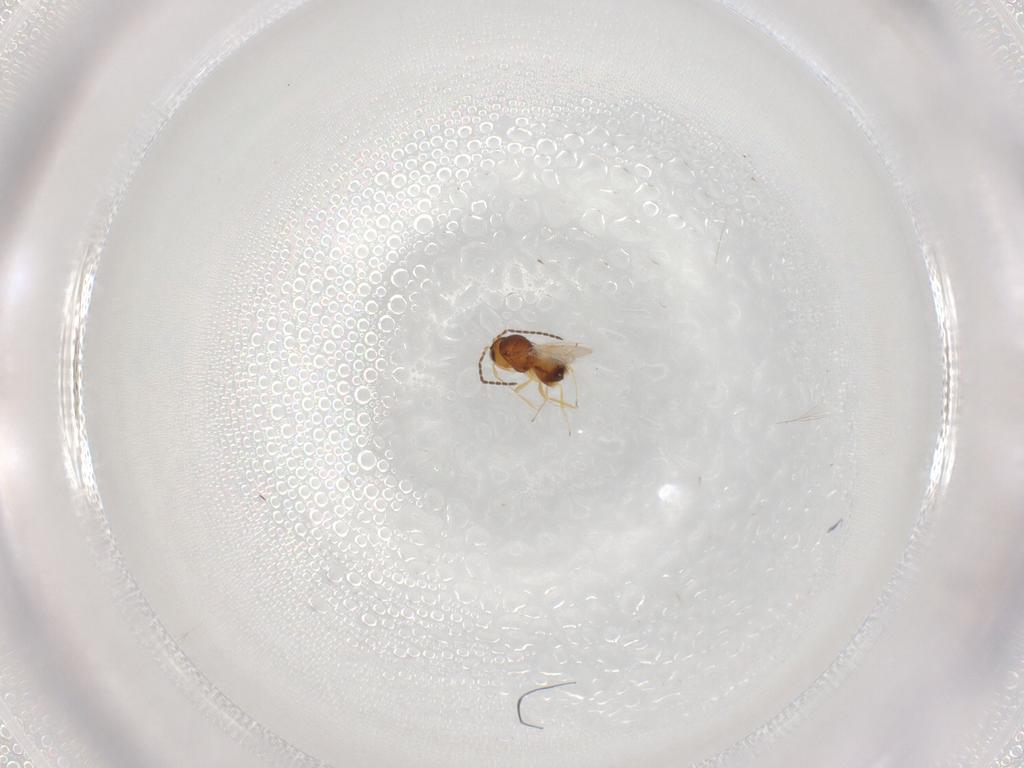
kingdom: Animalia
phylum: Arthropoda
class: Insecta
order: Hymenoptera
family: Scelionidae
